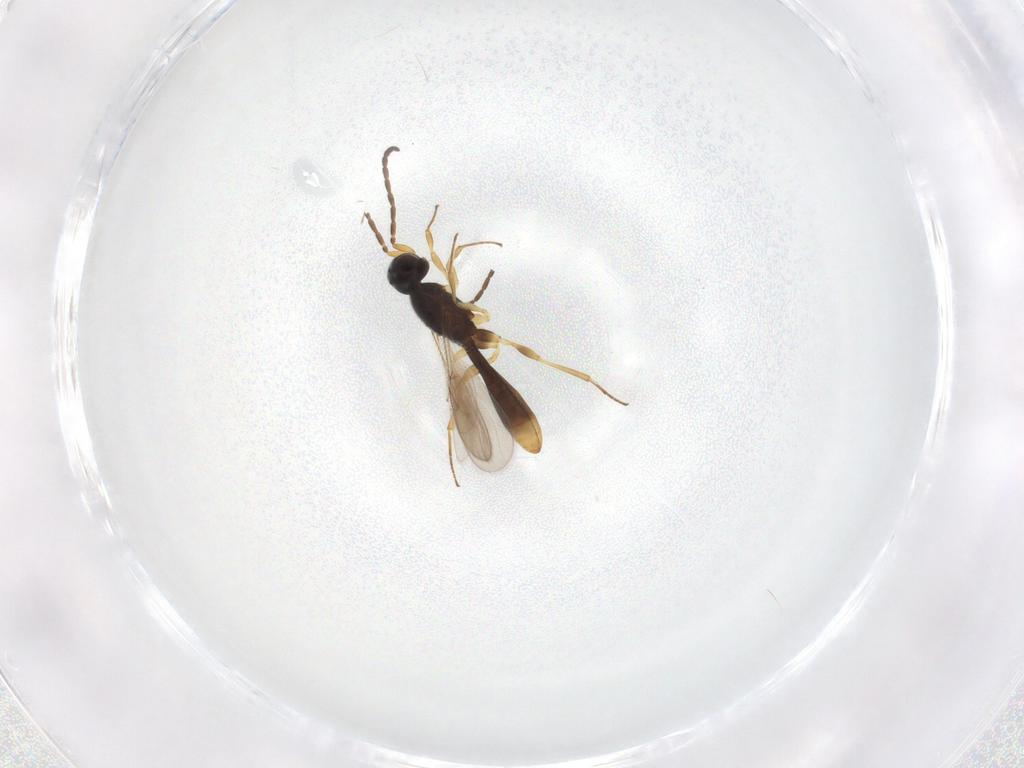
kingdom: Animalia
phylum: Arthropoda
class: Insecta
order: Hymenoptera
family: Scelionidae
